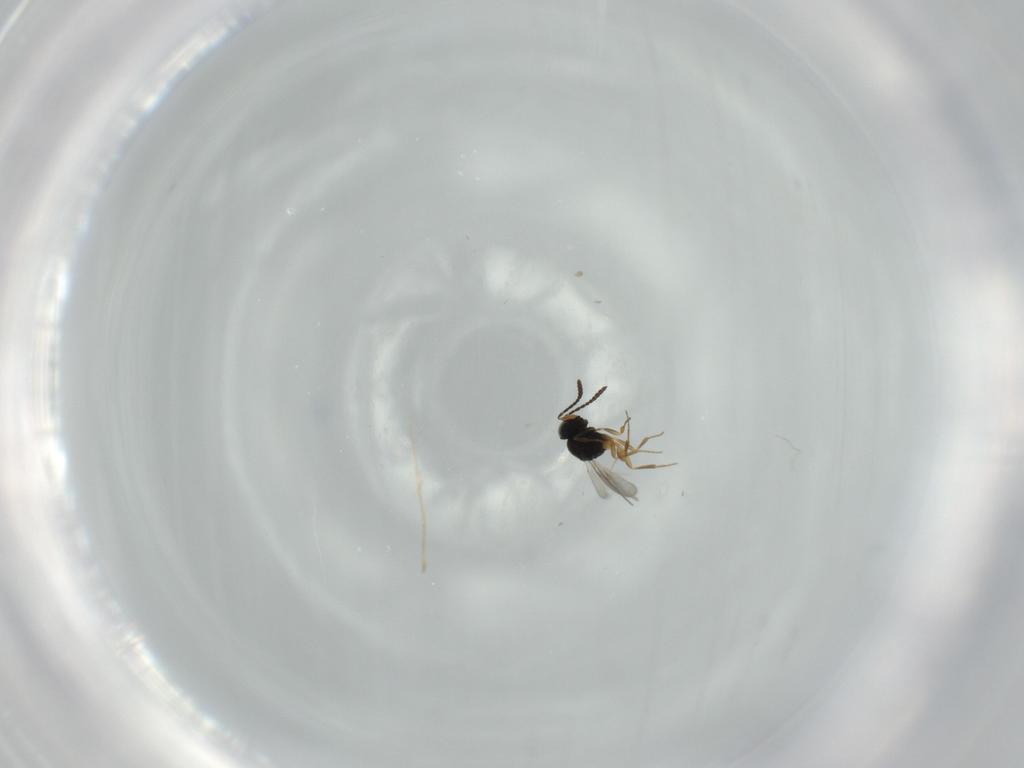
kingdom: Animalia
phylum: Arthropoda
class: Insecta
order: Hymenoptera
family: Scelionidae
